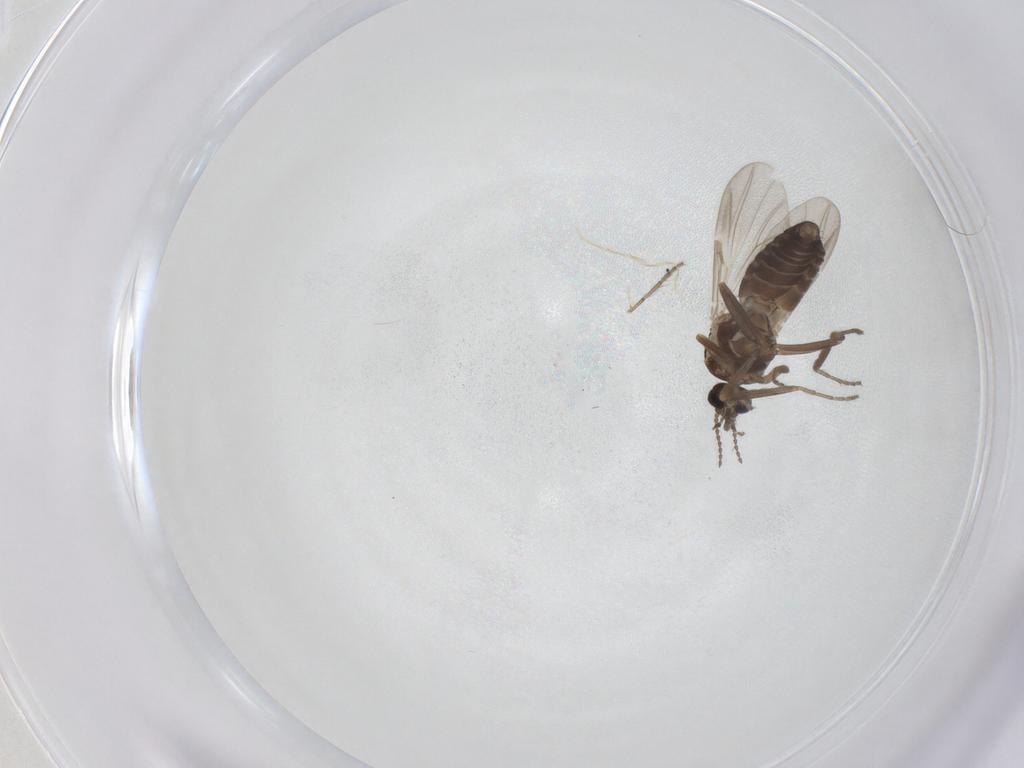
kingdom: Animalia
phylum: Arthropoda
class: Insecta
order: Diptera
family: Ceratopogonidae
